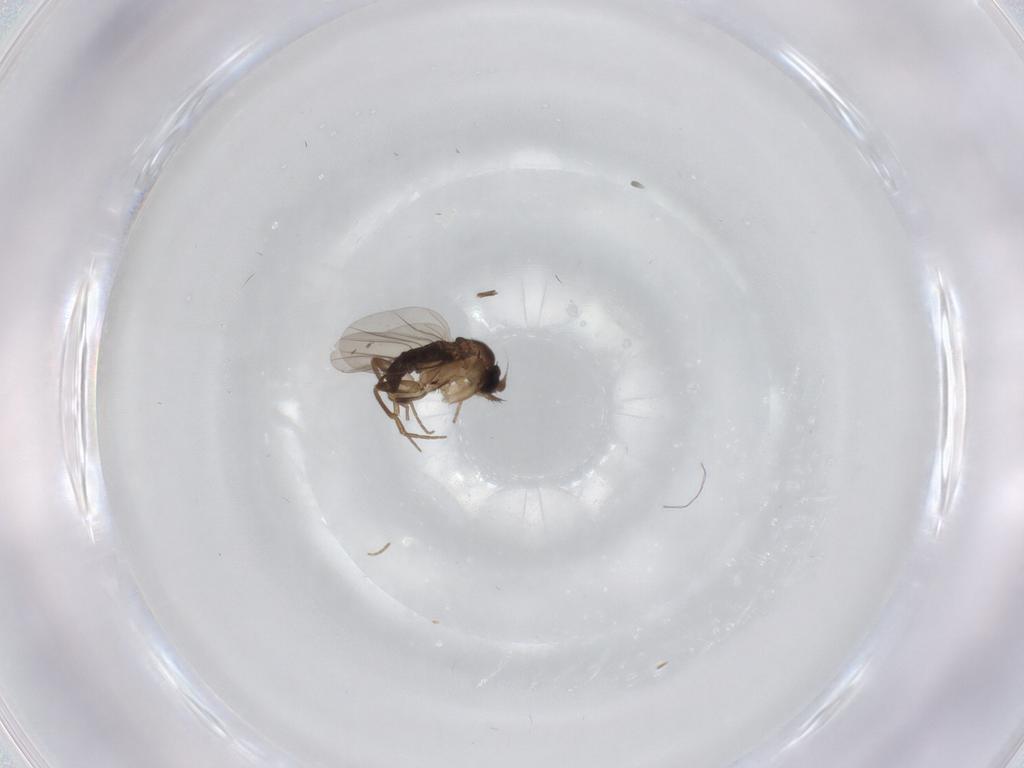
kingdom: Animalia
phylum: Arthropoda
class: Insecta
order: Diptera
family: Phoridae
